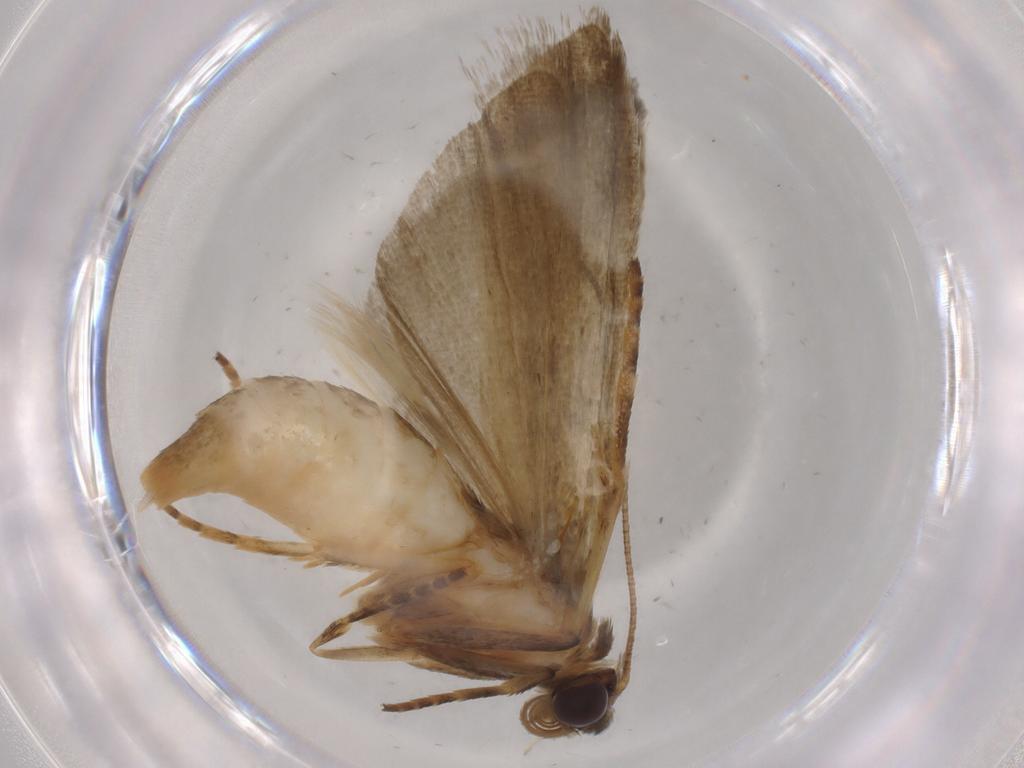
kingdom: Animalia
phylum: Arthropoda
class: Insecta
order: Lepidoptera
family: Noctuidae
